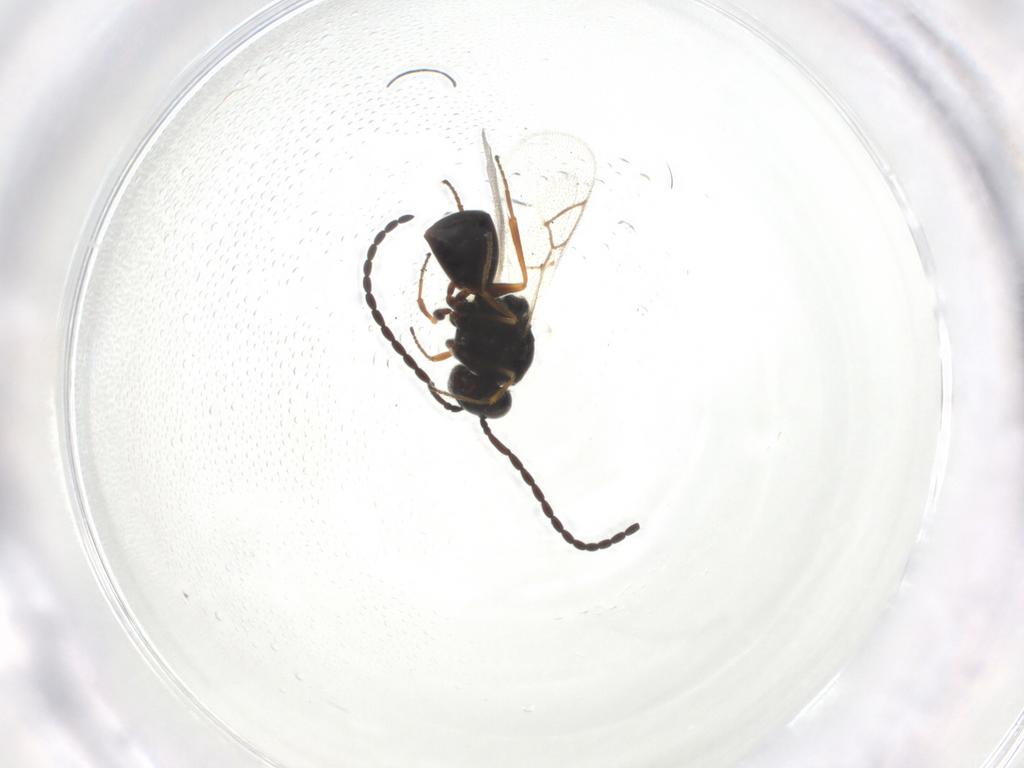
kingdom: Animalia
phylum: Arthropoda
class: Insecta
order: Hymenoptera
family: Figitidae
